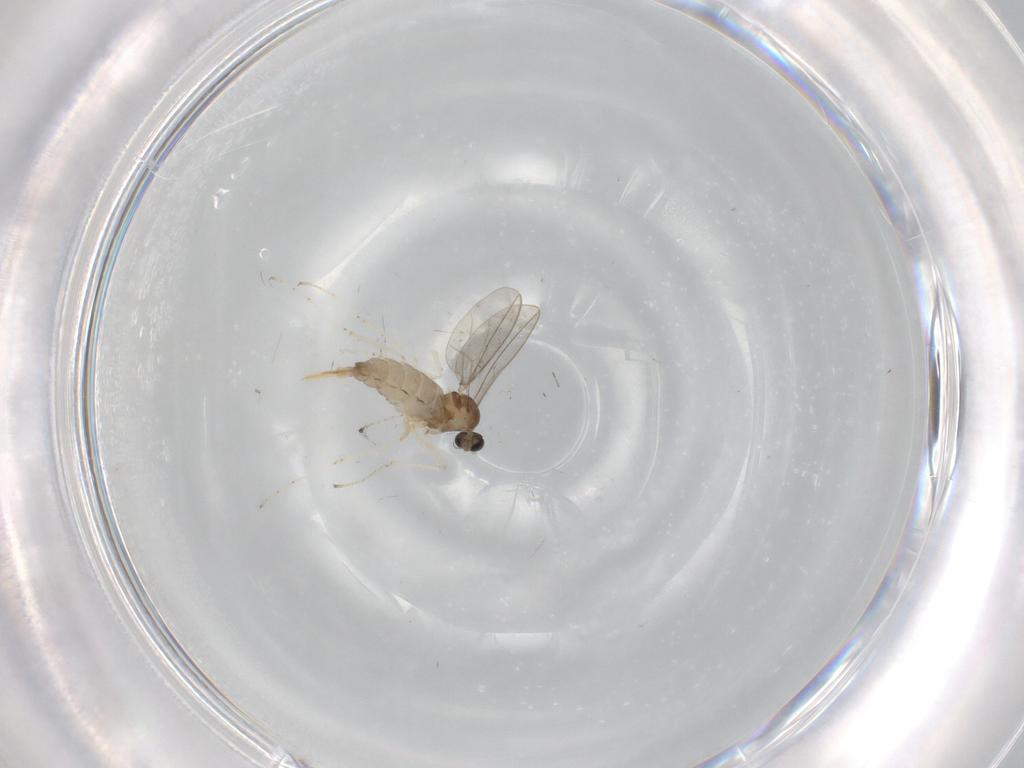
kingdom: Animalia
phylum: Arthropoda
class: Insecta
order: Diptera
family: Cecidomyiidae
